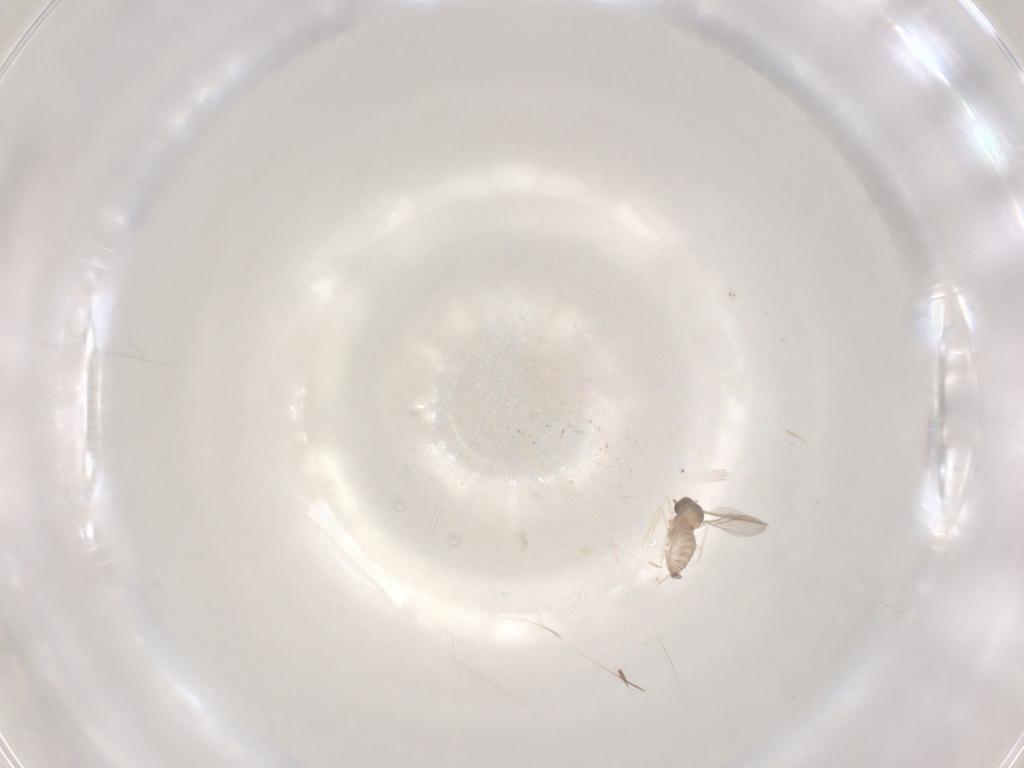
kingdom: Animalia
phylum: Arthropoda
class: Insecta
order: Diptera
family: Cecidomyiidae
